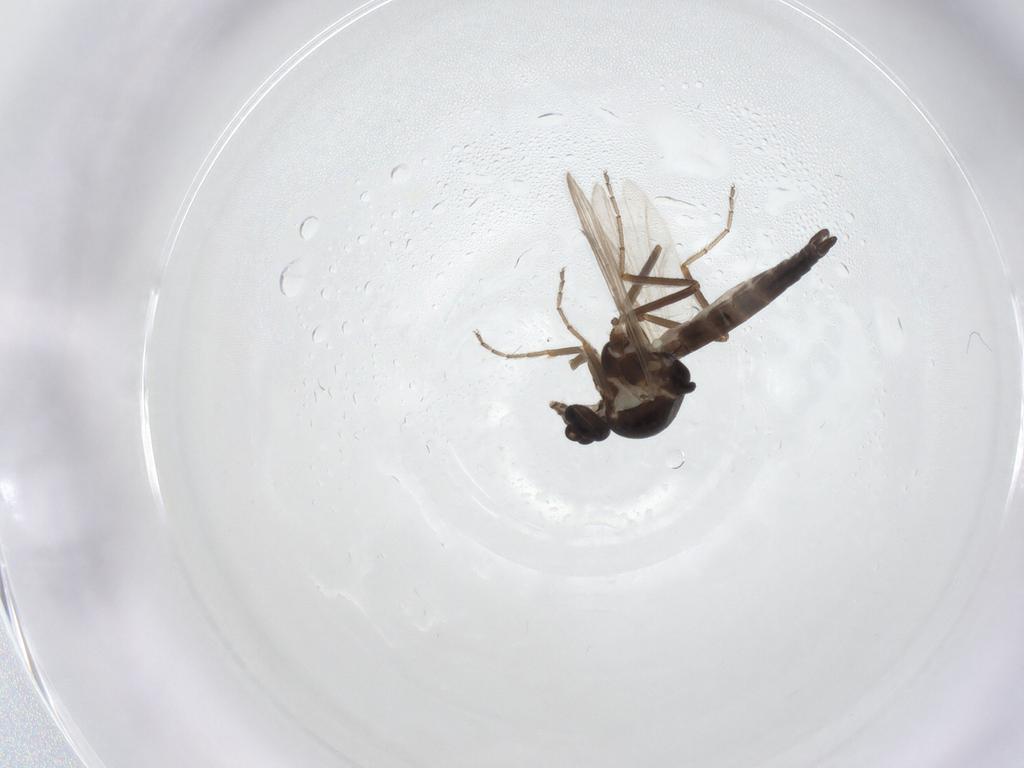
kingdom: Animalia
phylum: Arthropoda
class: Insecta
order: Diptera
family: Ceratopogonidae
